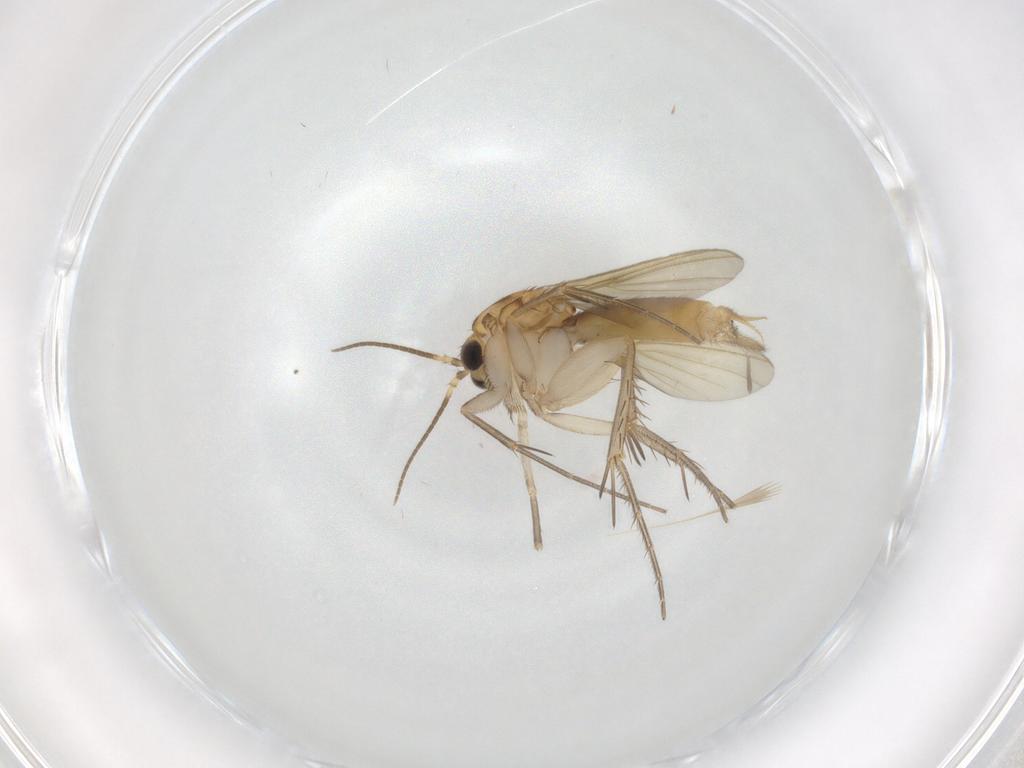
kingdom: Animalia
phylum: Arthropoda
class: Insecta
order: Diptera
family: Mycetophilidae
